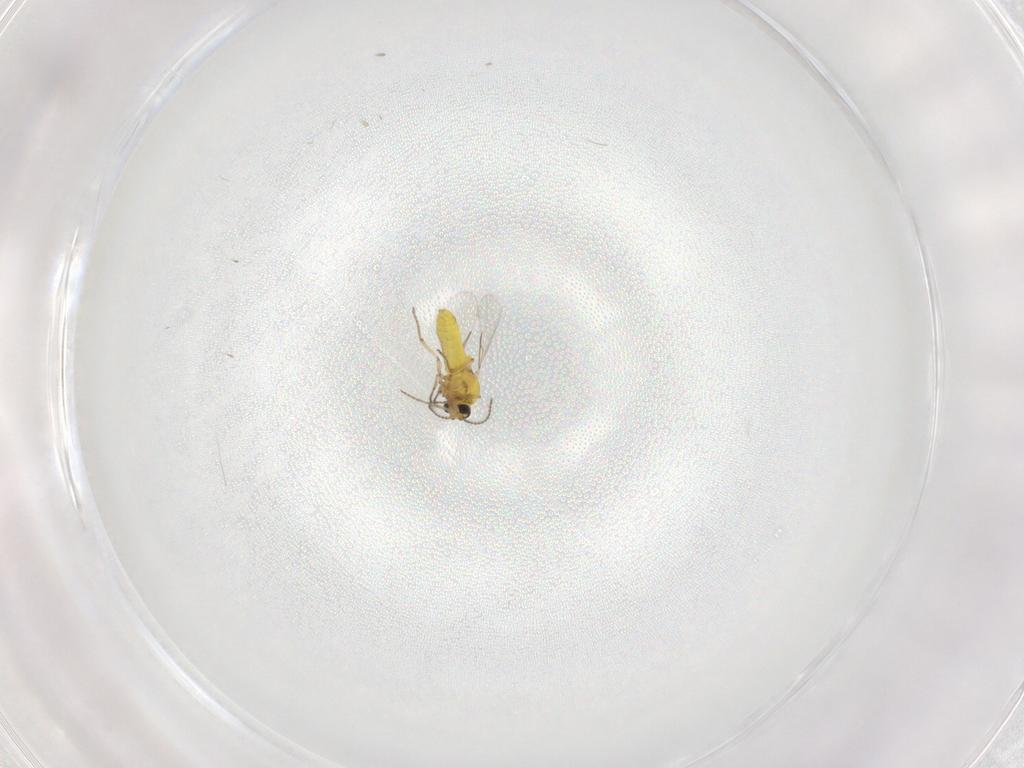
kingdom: Animalia
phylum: Arthropoda
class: Insecta
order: Diptera
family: Ceratopogonidae
